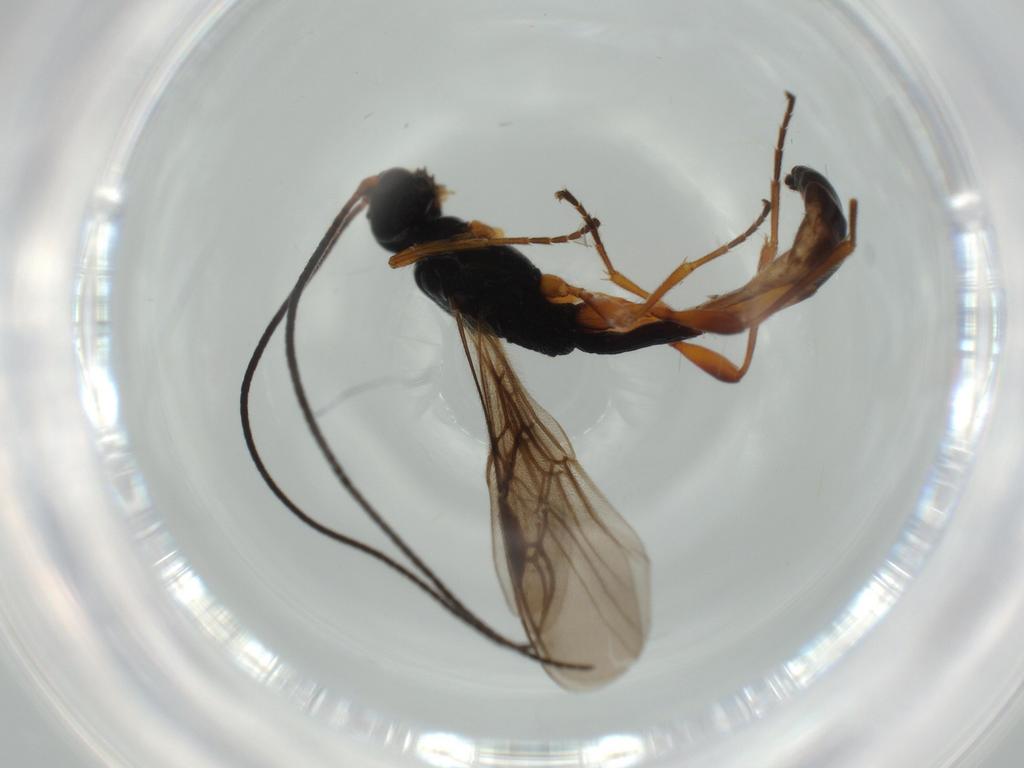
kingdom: Animalia
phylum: Arthropoda
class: Insecta
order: Hymenoptera
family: Braconidae
